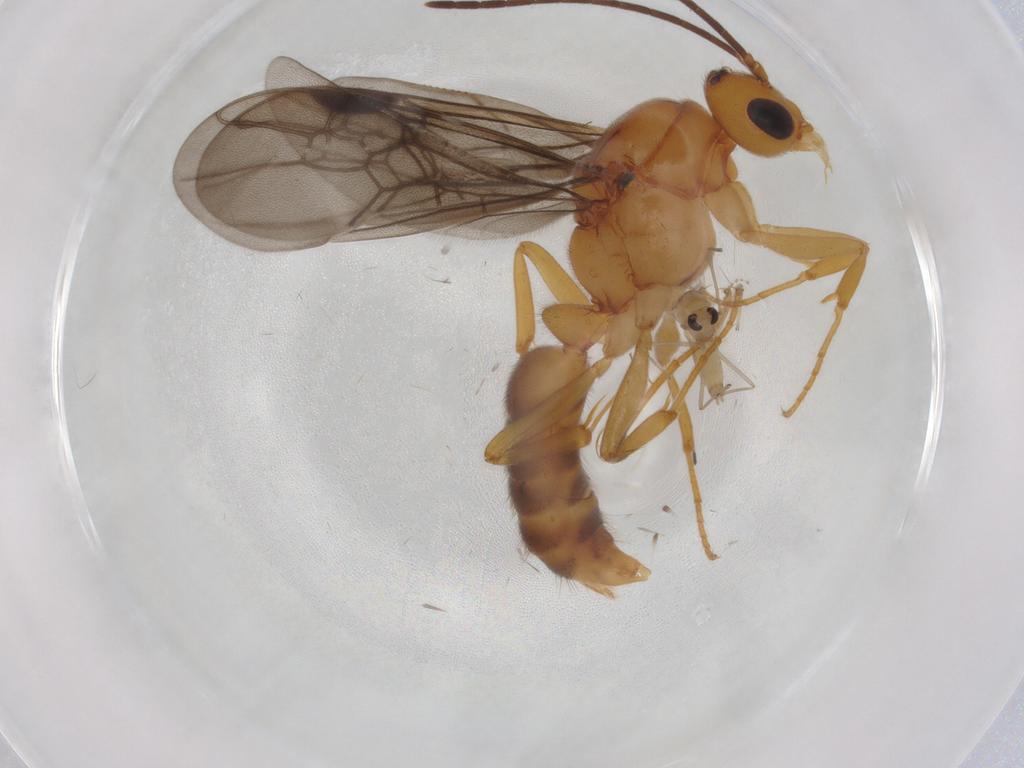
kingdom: Animalia
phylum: Arthropoda
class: Insecta
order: Hymenoptera
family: Formicidae
